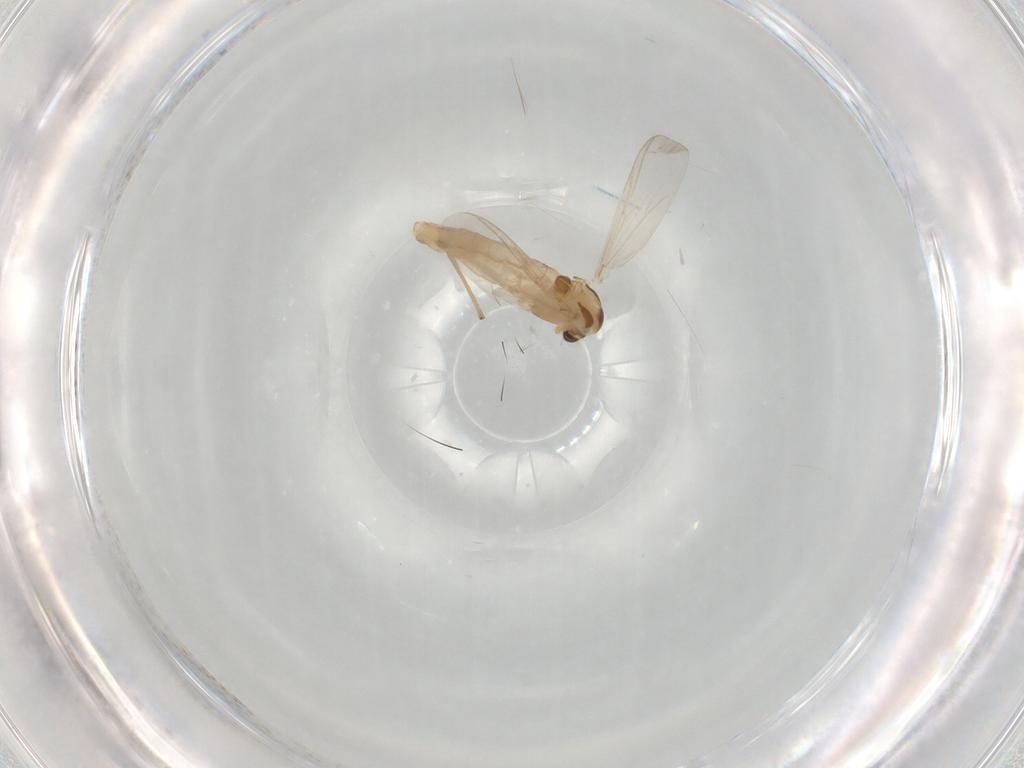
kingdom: Animalia
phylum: Arthropoda
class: Insecta
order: Diptera
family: Chironomidae
